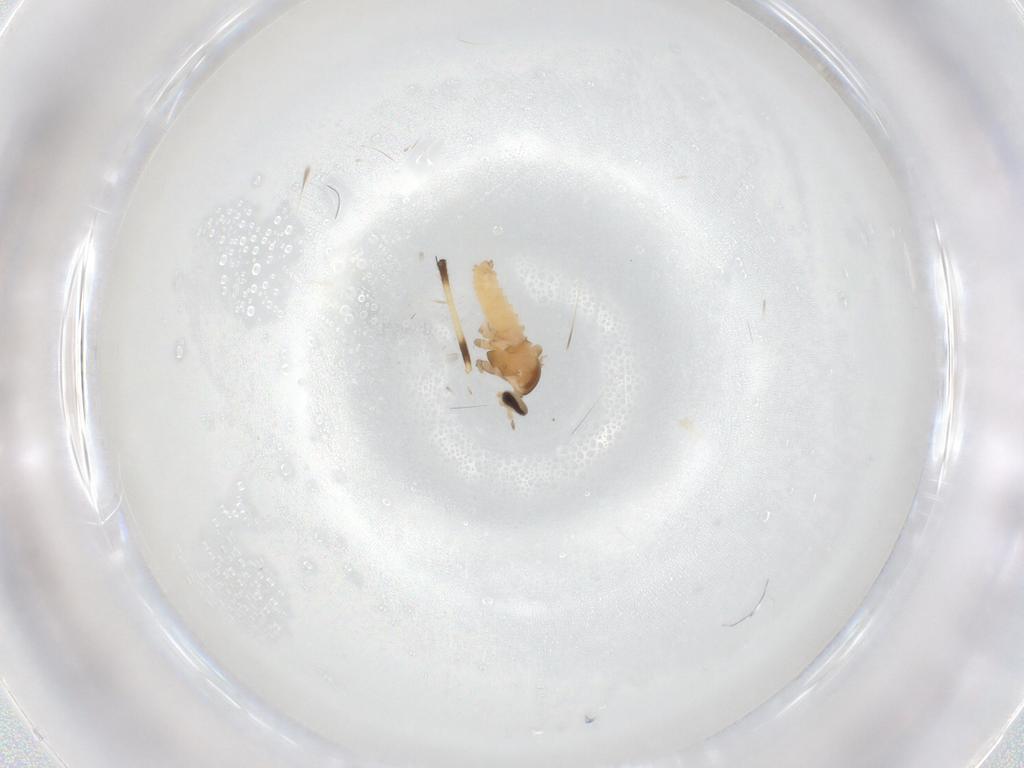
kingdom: Animalia
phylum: Arthropoda
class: Insecta
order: Diptera
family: Cecidomyiidae
